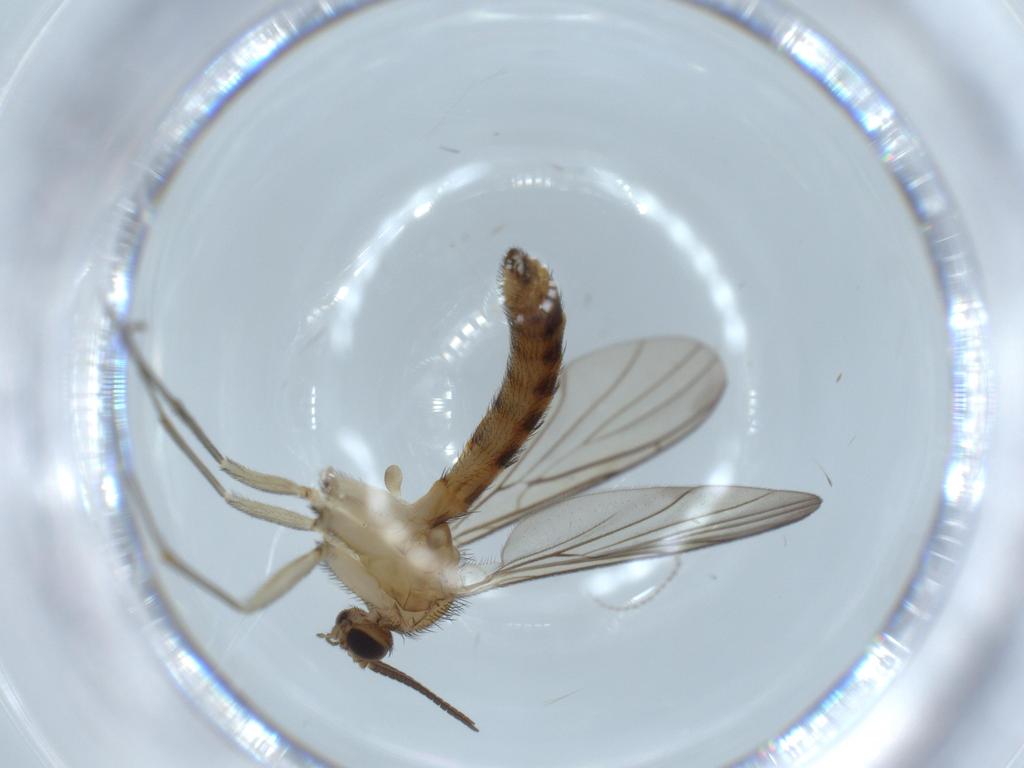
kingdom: Animalia
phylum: Arthropoda
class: Insecta
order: Diptera
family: Keroplatidae
